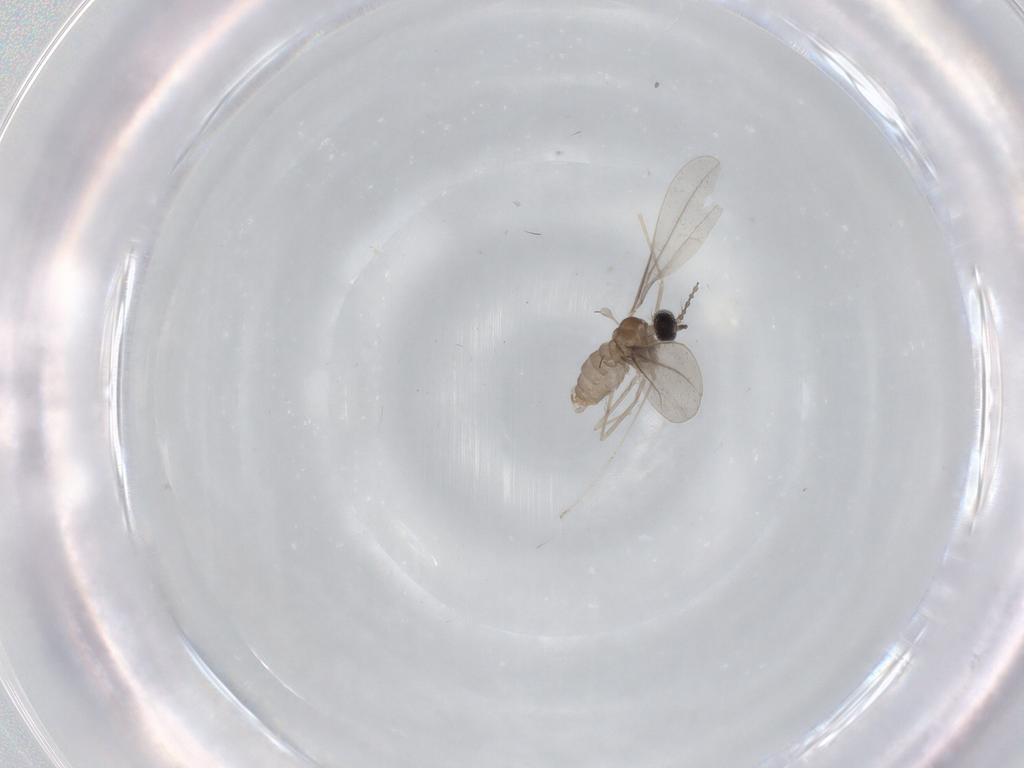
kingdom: Animalia
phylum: Arthropoda
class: Insecta
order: Diptera
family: Cecidomyiidae
